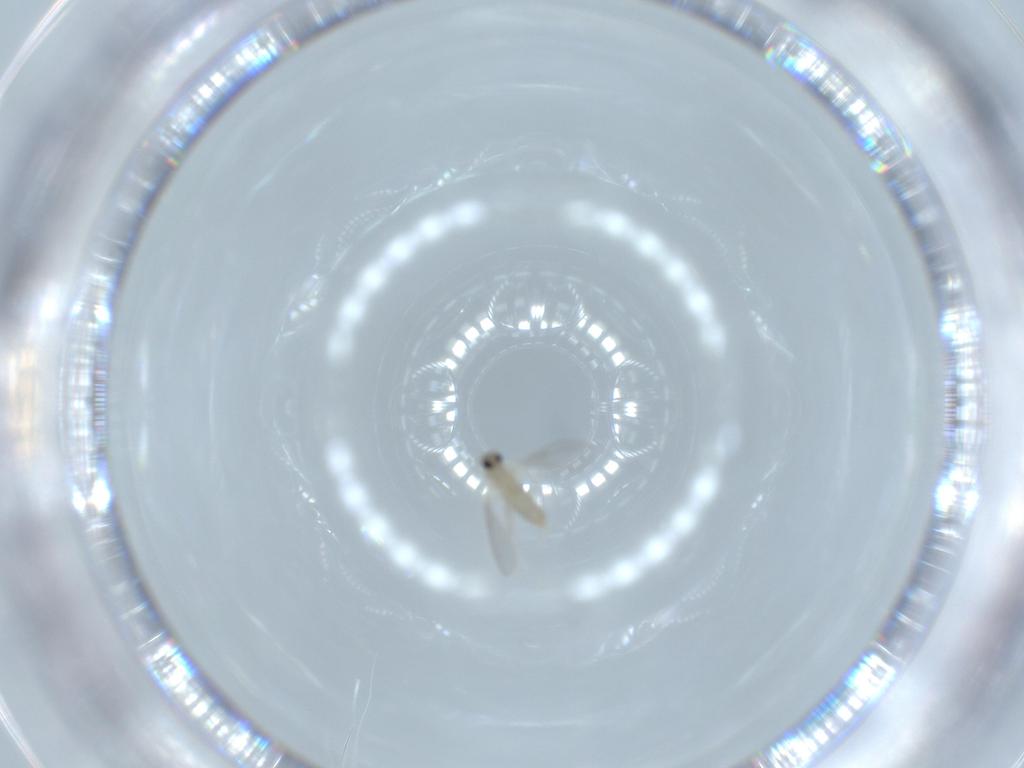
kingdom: Animalia
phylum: Arthropoda
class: Insecta
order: Diptera
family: Cecidomyiidae
